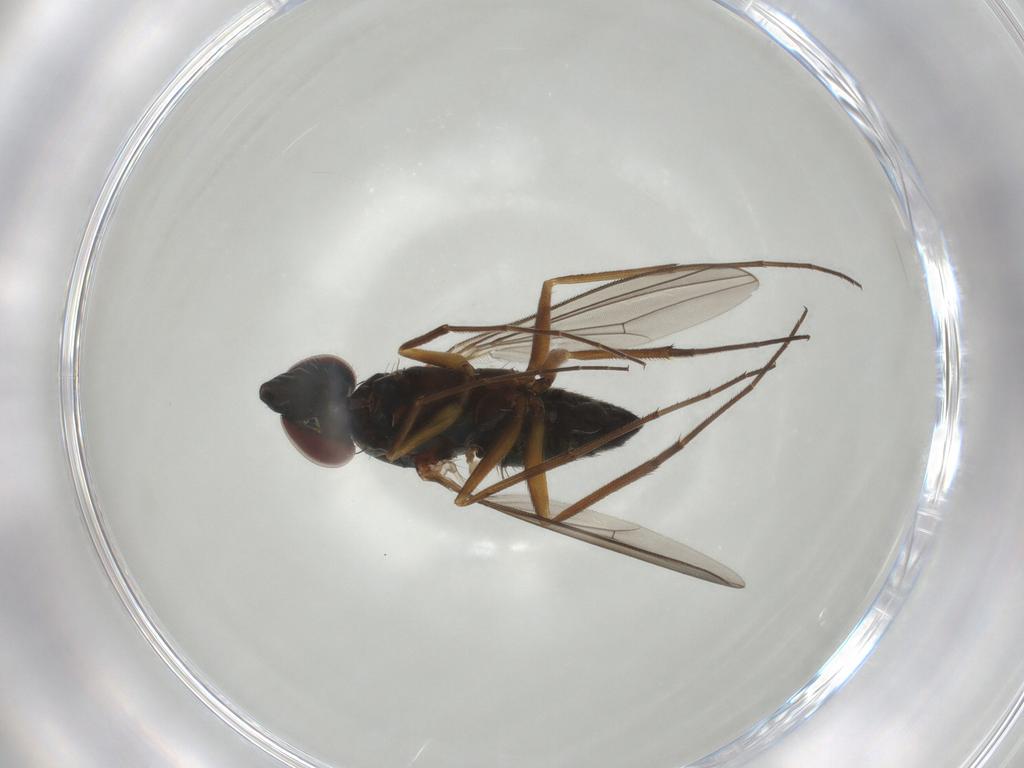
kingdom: Animalia
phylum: Arthropoda
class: Insecta
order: Diptera
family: Dolichopodidae
